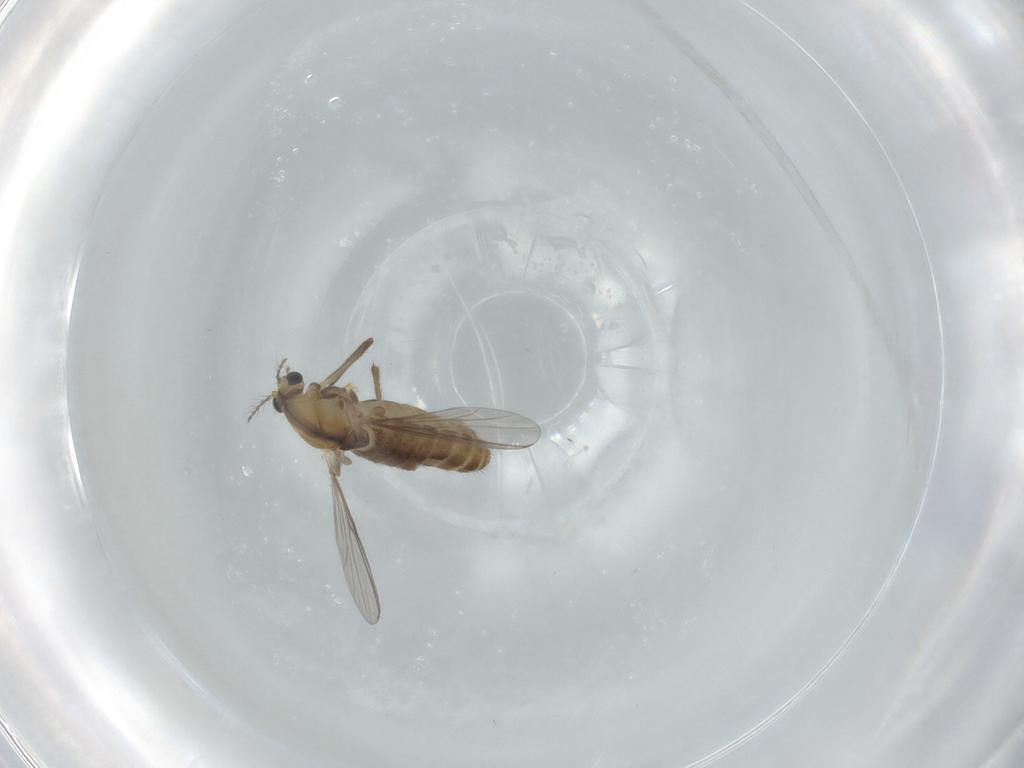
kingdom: Animalia
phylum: Arthropoda
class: Insecta
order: Diptera
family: Chironomidae
